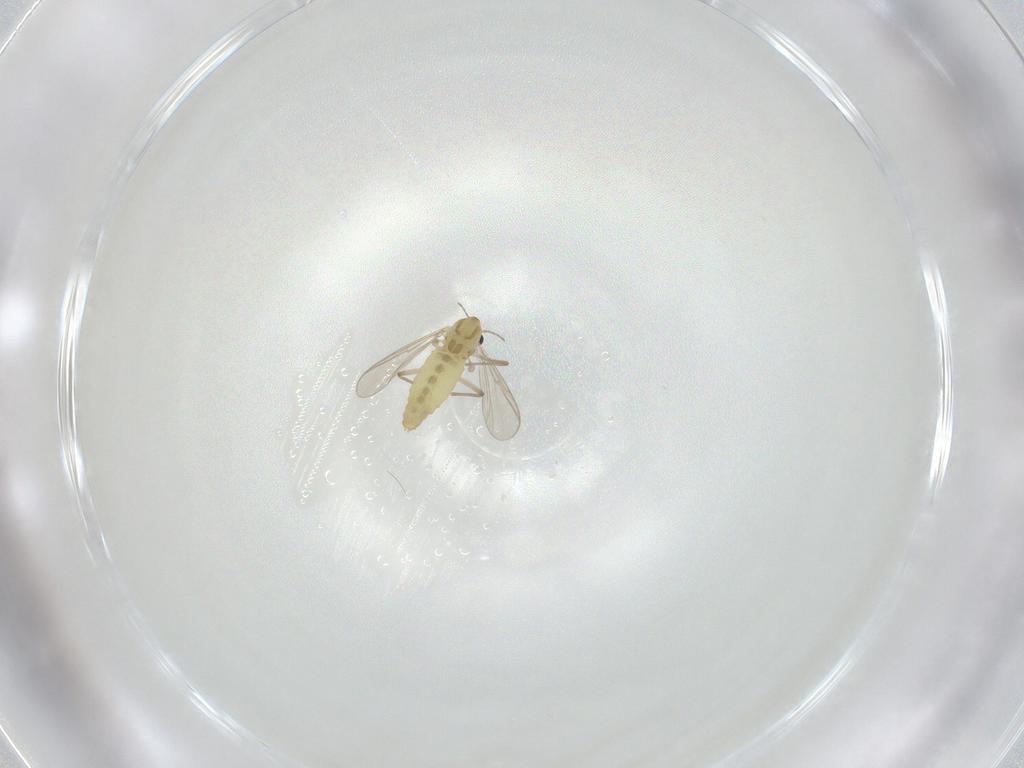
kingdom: Animalia
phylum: Arthropoda
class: Insecta
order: Diptera
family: Chironomidae
